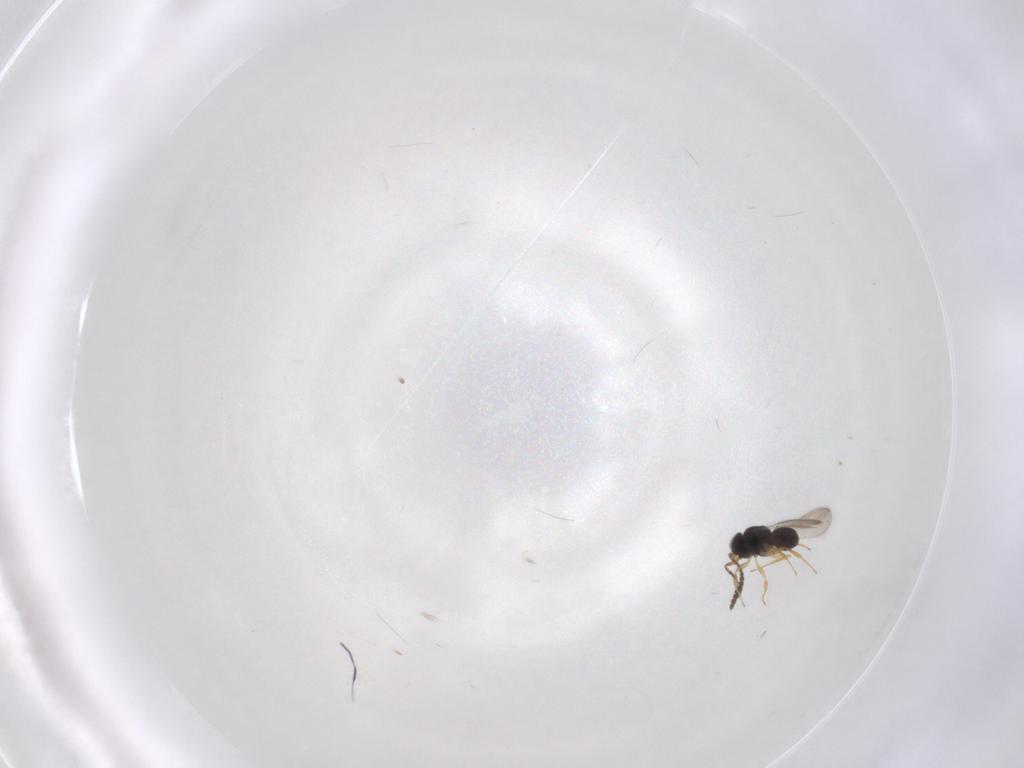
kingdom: Animalia
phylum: Arthropoda
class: Insecta
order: Hymenoptera
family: Scelionidae
